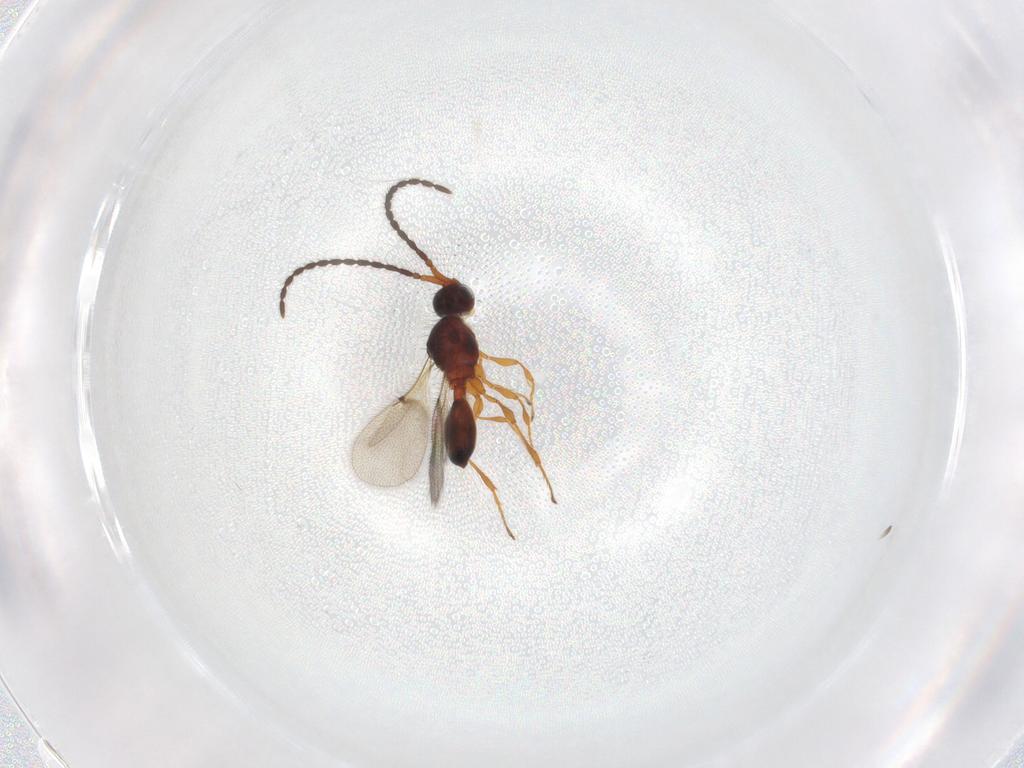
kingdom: Animalia
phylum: Arthropoda
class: Insecta
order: Hymenoptera
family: Diapriidae
